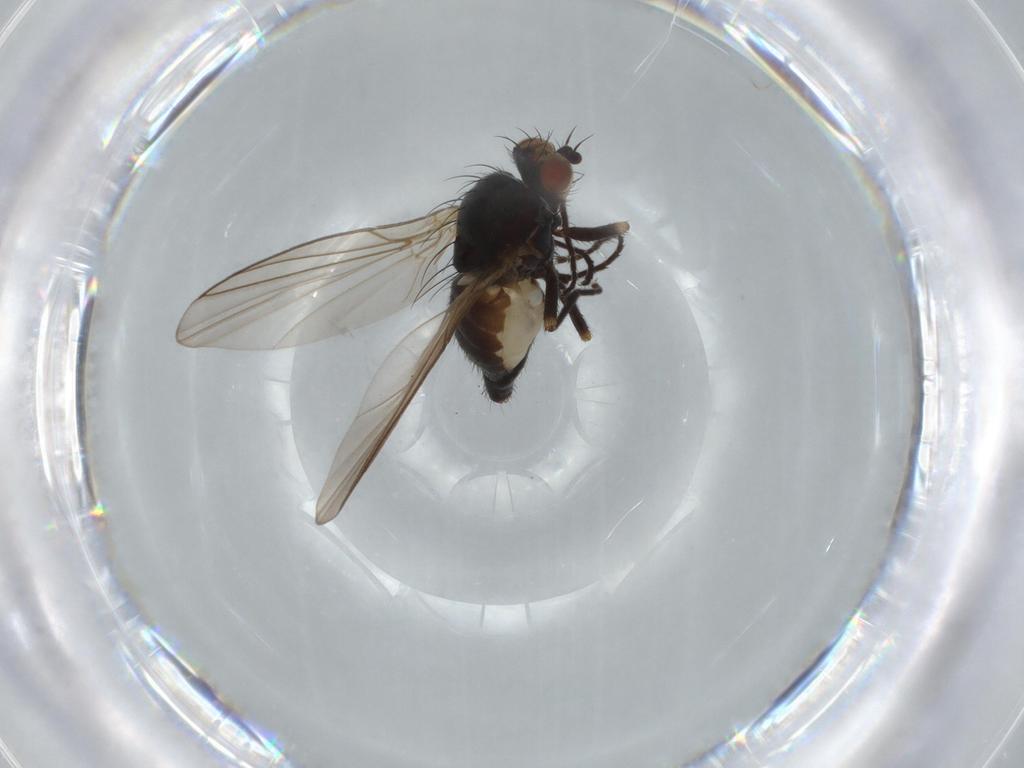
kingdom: Animalia
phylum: Arthropoda
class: Insecta
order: Diptera
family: Agromyzidae
